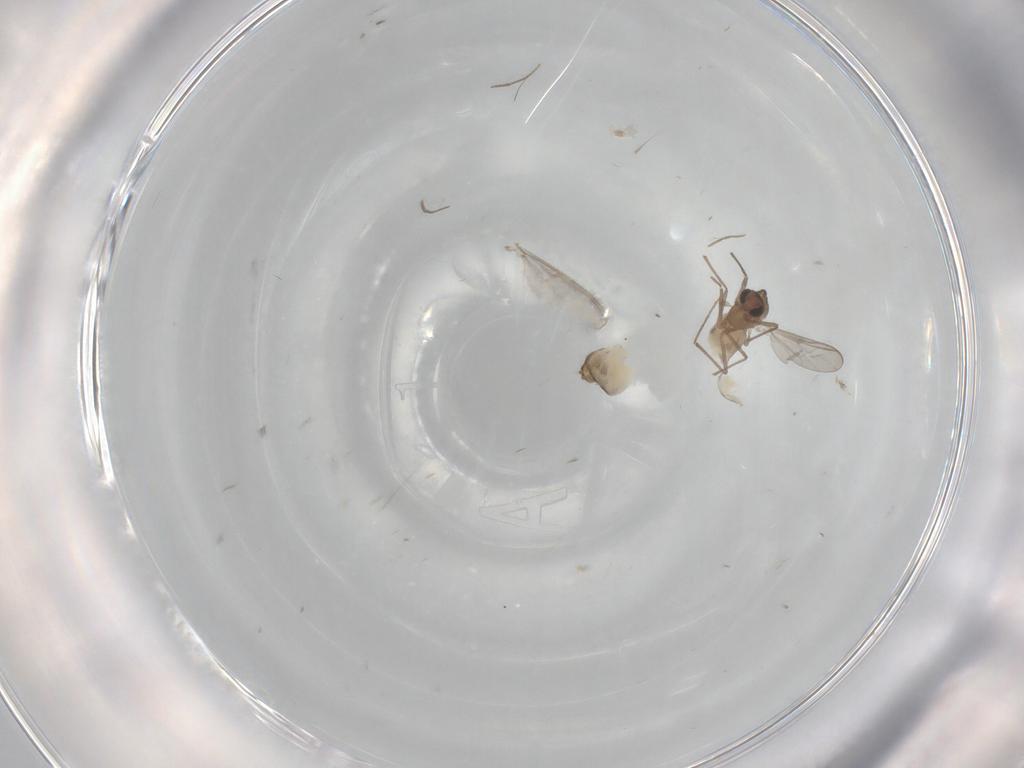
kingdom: Animalia
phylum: Arthropoda
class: Insecta
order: Diptera
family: Chironomidae
